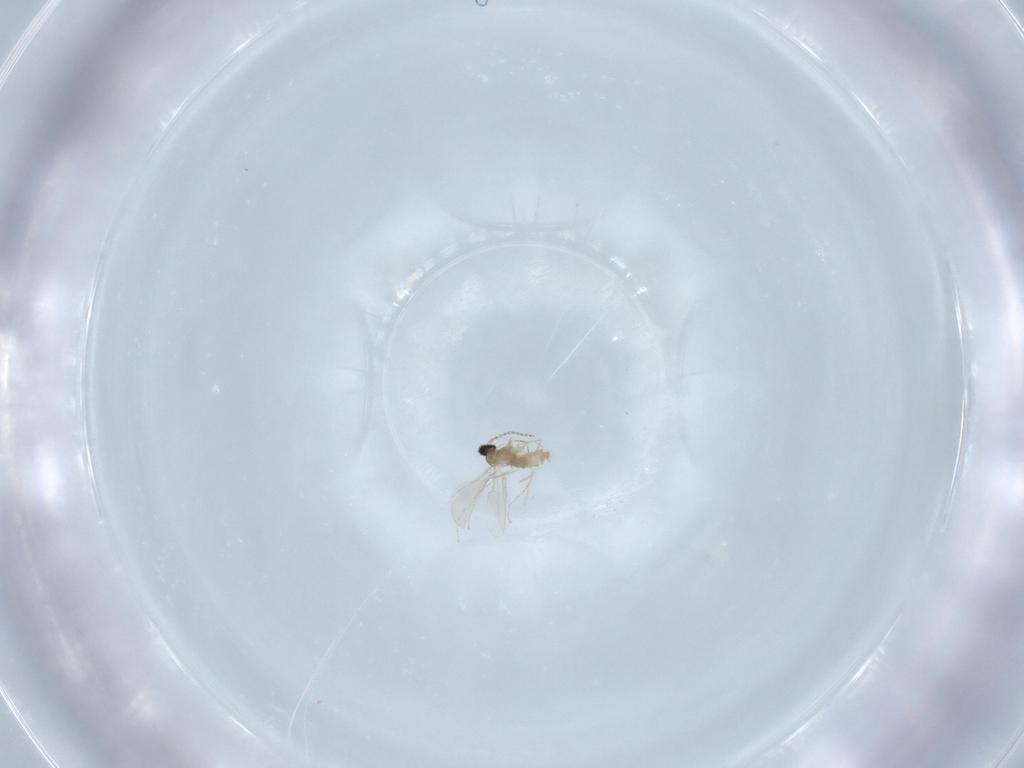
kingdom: Animalia
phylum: Arthropoda
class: Insecta
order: Diptera
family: Cecidomyiidae
